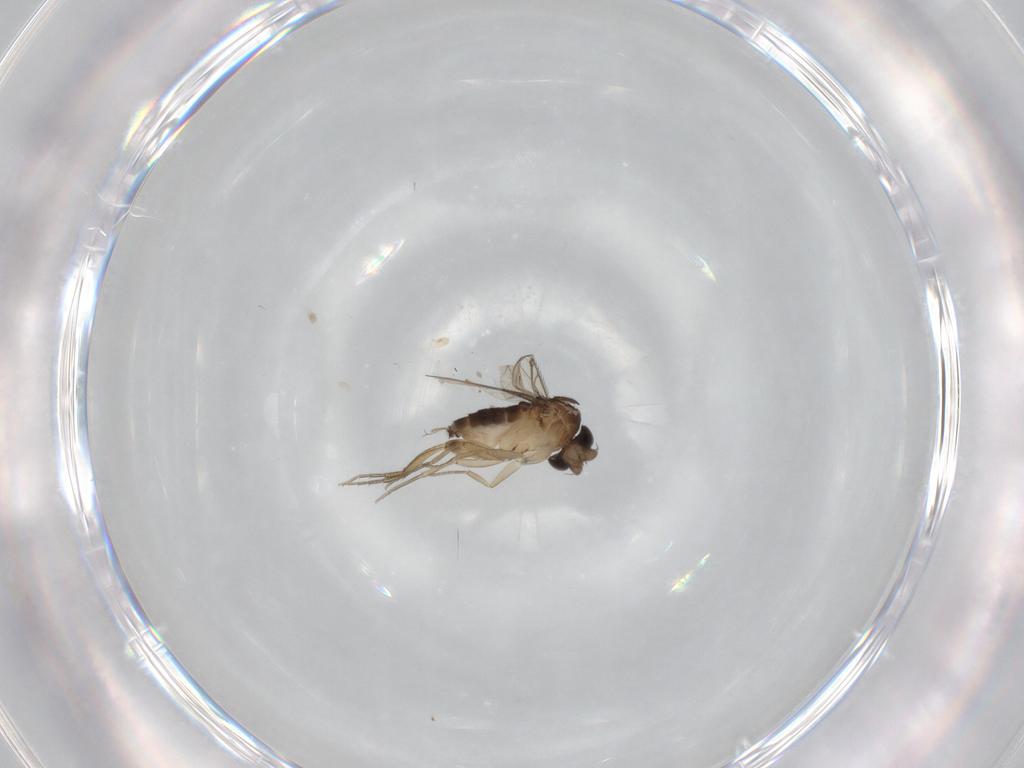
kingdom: Animalia
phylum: Arthropoda
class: Insecta
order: Diptera
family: Phoridae
